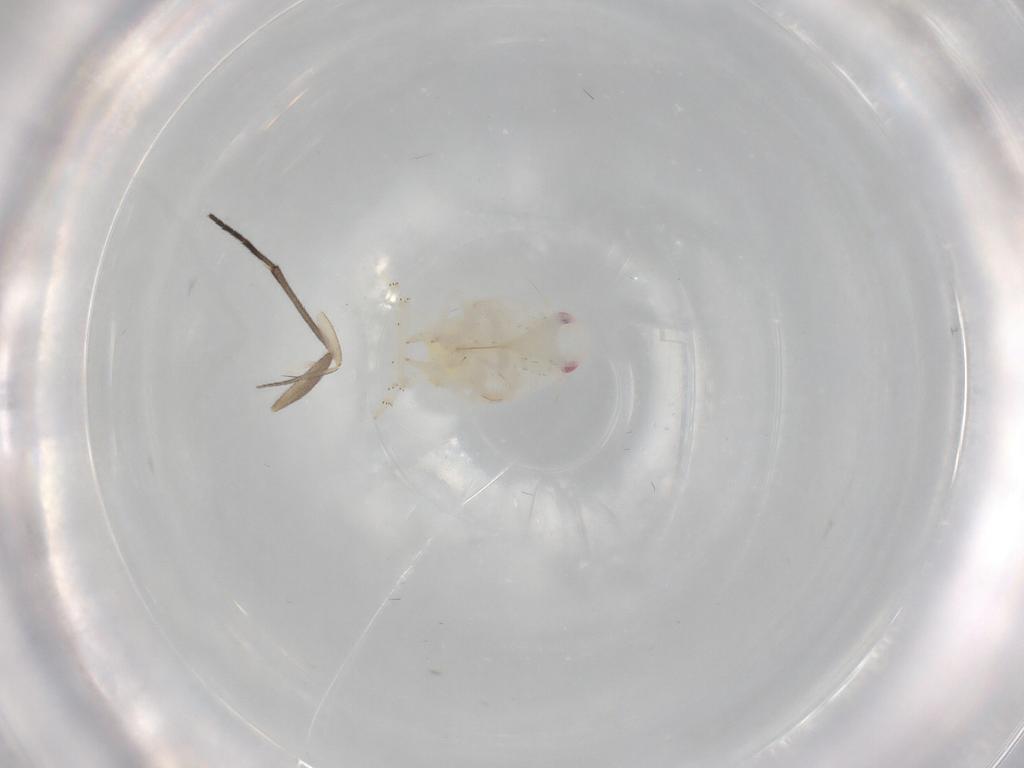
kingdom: Animalia
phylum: Arthropoda
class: Insecta
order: Hemiptera
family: Flatidae
